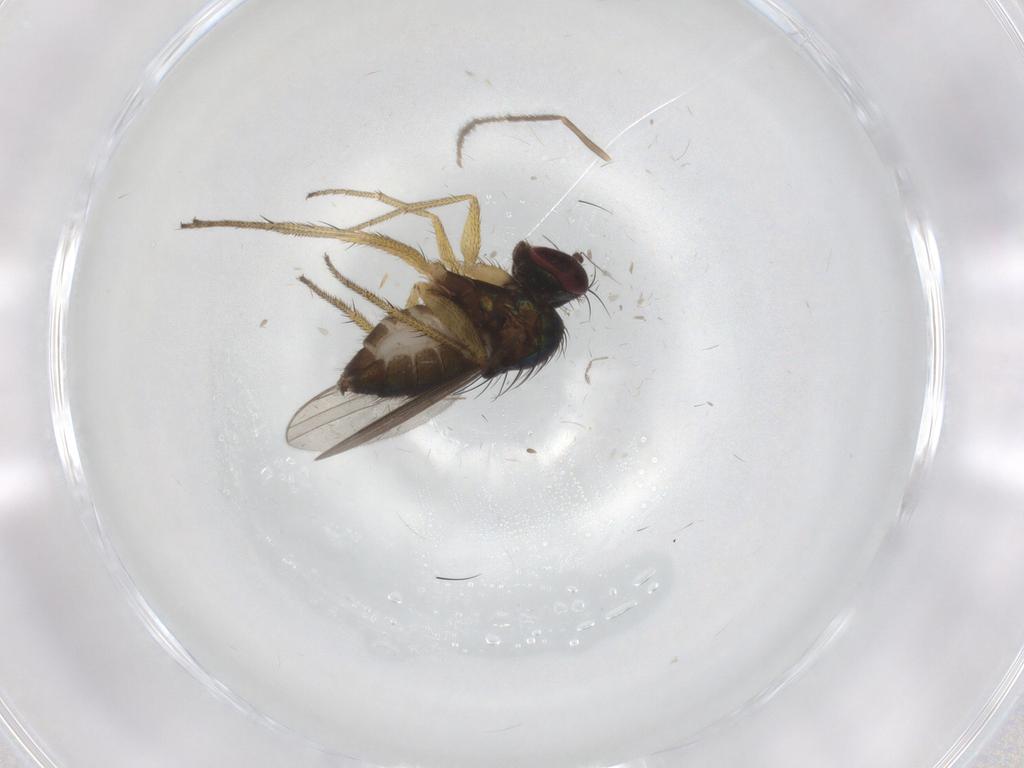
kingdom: Animalia
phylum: Arthropoda
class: Insecta
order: Diptera
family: Dolichopodidae
